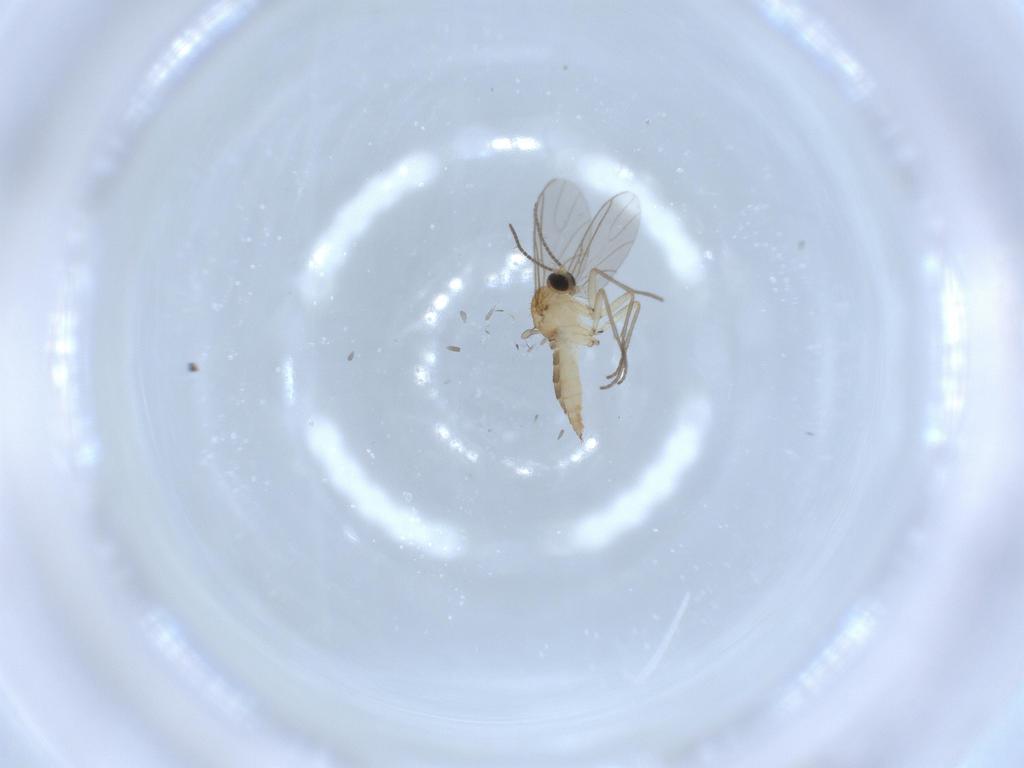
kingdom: Animalia
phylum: Arthropoda
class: Insecta
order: Diptera
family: Sciaridae
